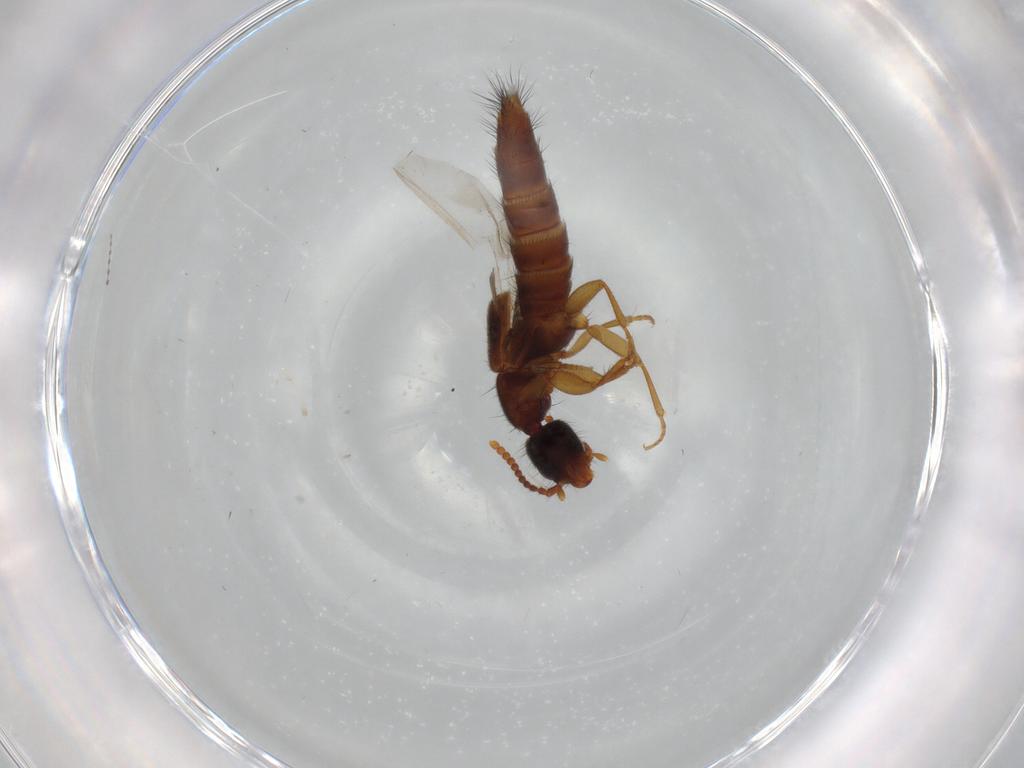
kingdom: Animalia
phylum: Arthropoda
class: Insecta
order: Coleoptera
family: Staphylinidae
